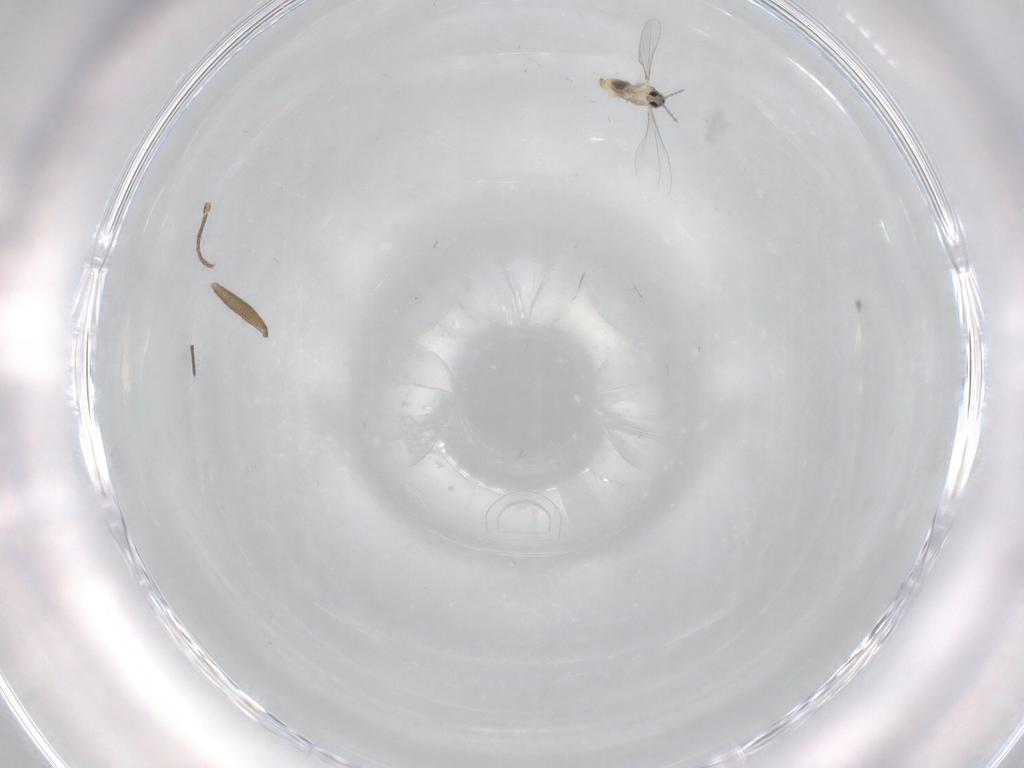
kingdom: Animalia
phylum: Arthropoda
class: Insecta
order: Diptera
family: Cecidomyiidae
